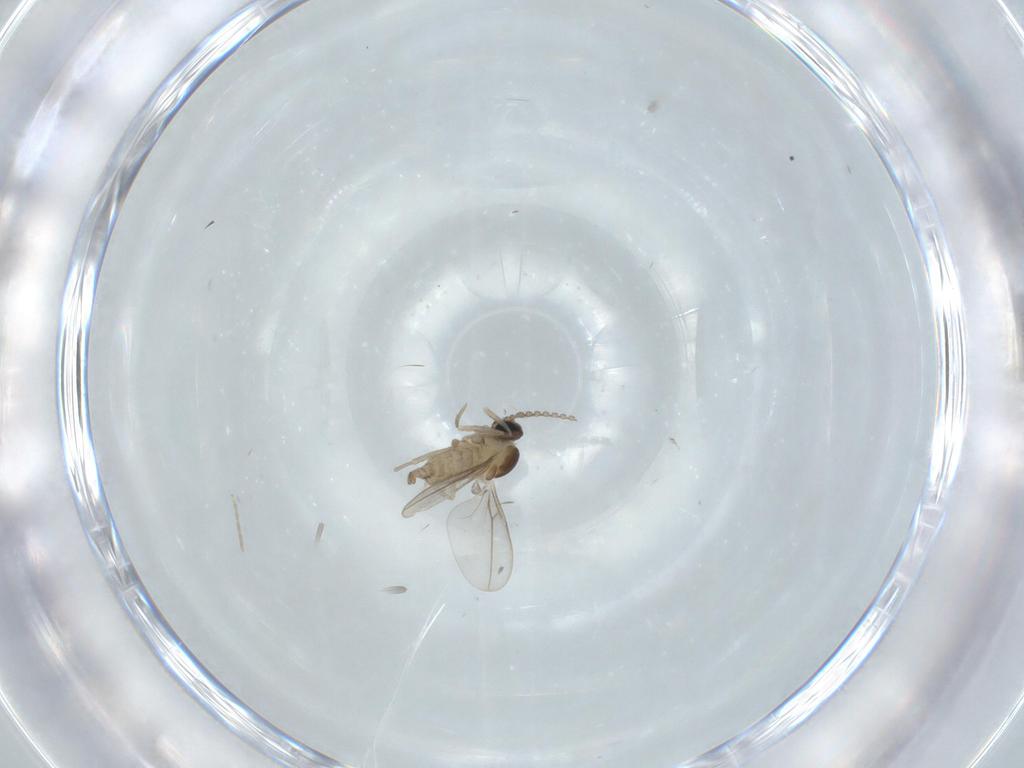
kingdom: Animalia
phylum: Arthropoda
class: Insecta
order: Diptera
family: Cecidomyiidae
